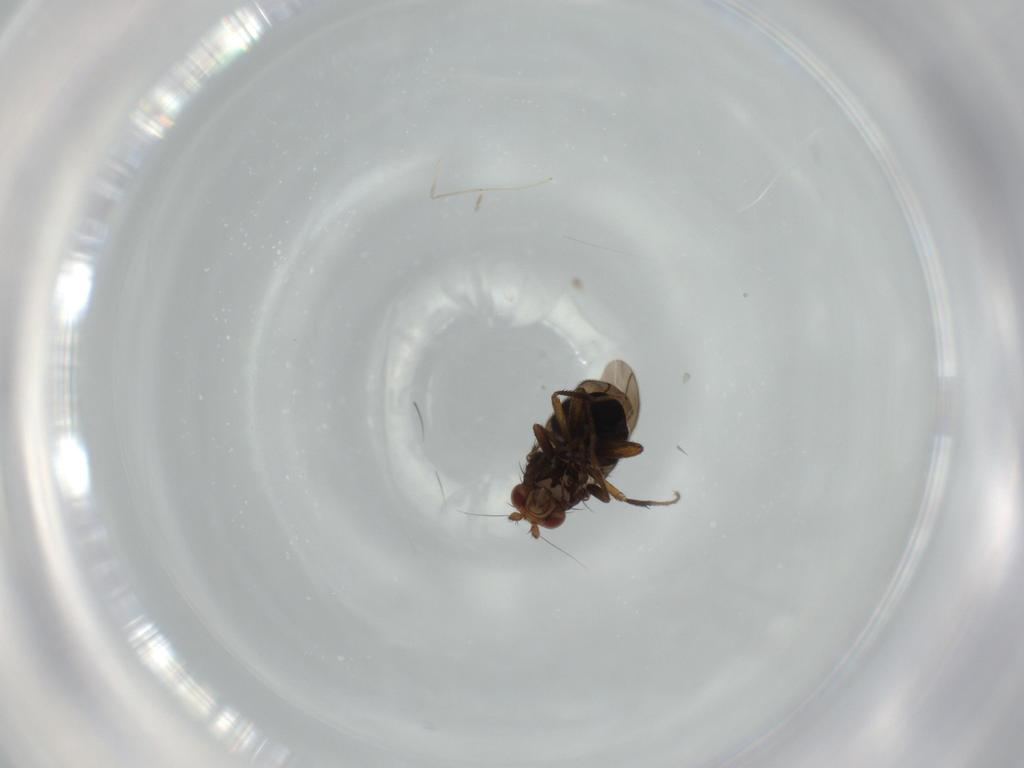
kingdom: Animalia
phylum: Arthropoda
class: Insecta
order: Diptera
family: Sphaeroceridae
